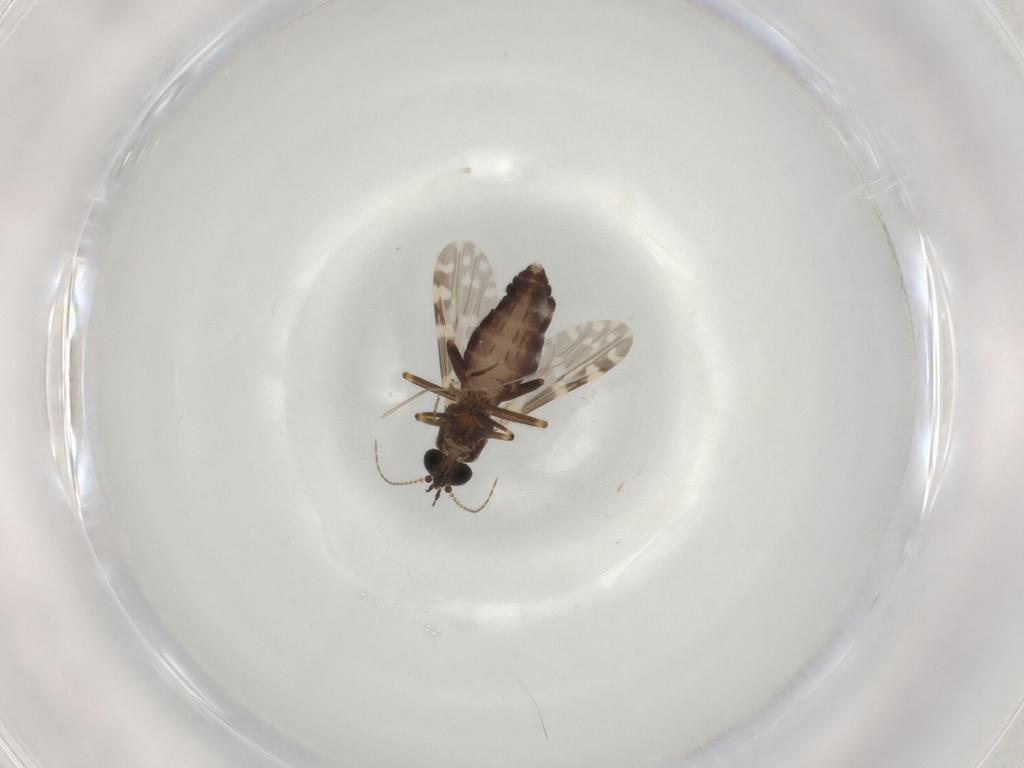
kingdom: Animalia
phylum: Arthropoda
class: Insecta
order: Diptera
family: Ceratopogonidae
